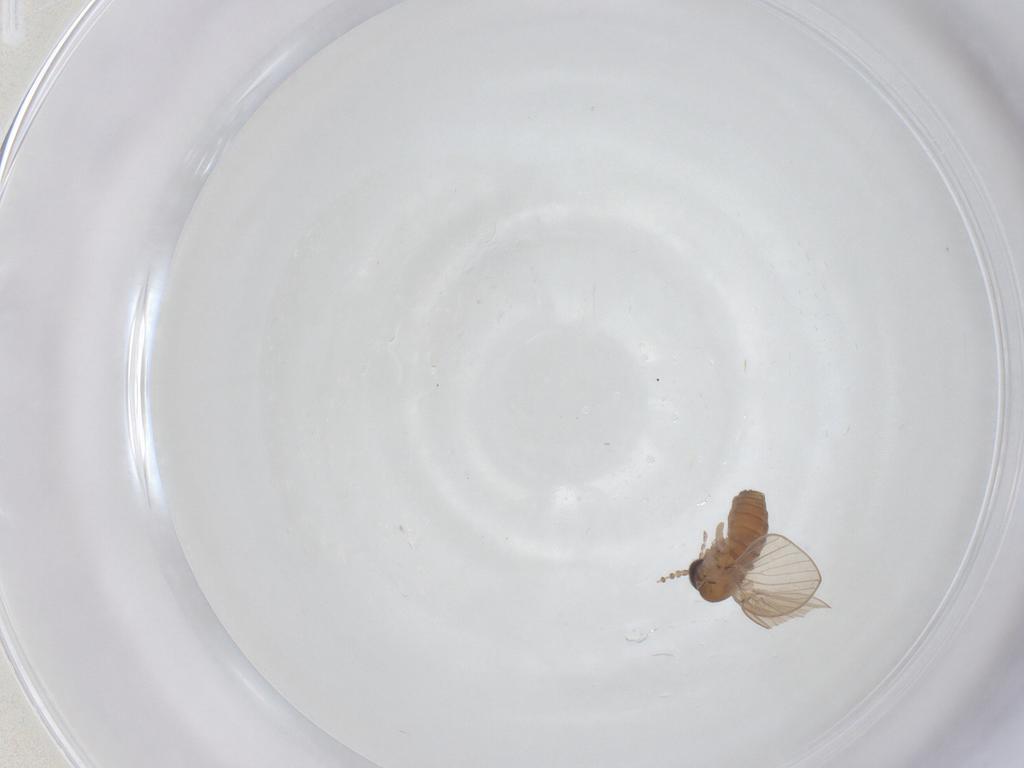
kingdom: Animalia
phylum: Arthropoda
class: Insecta
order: Diptera
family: Psychodidae
